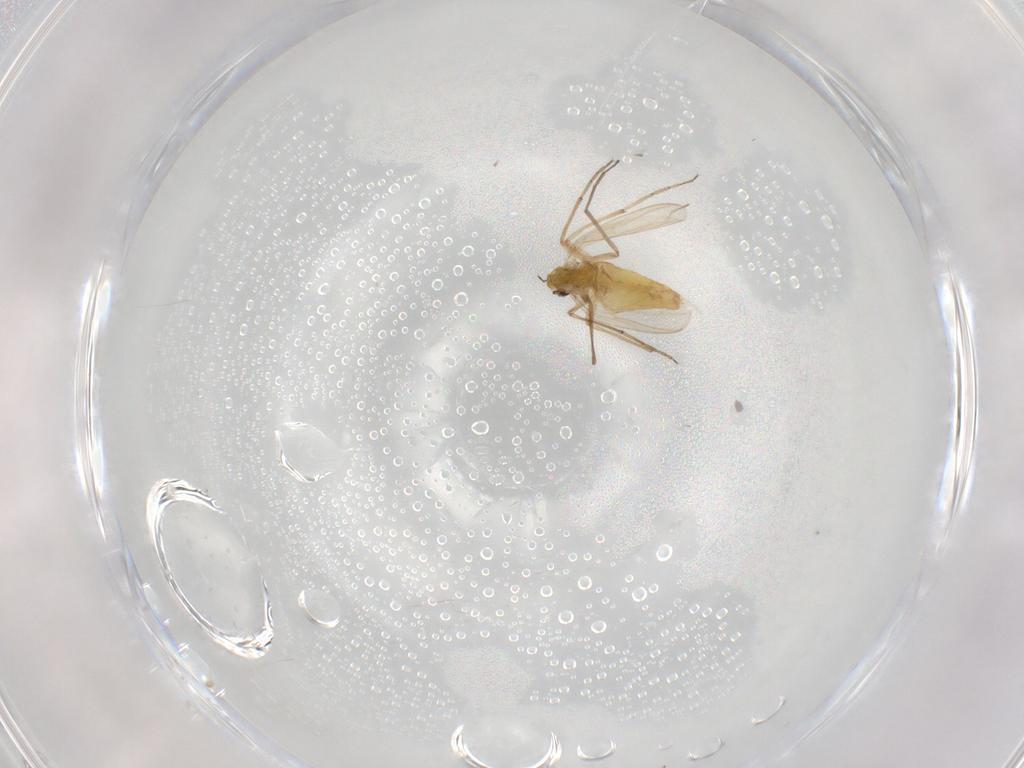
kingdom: Animalia
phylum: Arthropoda
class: Insecta
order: Diptera
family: Chironomidae
